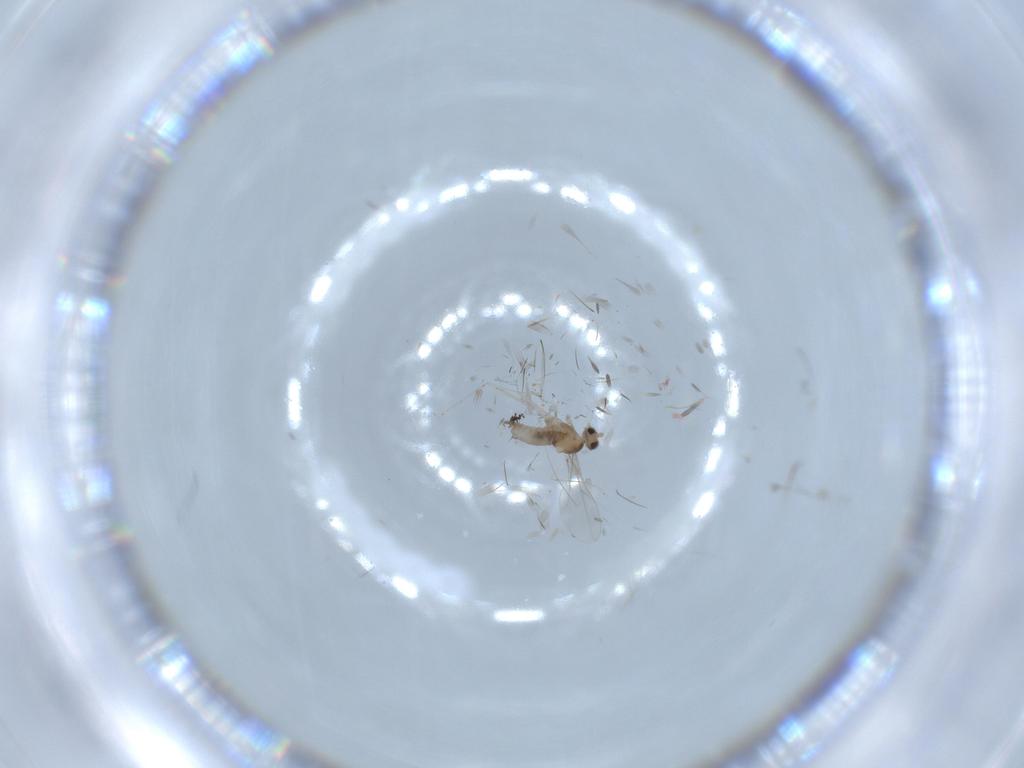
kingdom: Animalia
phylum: Arthropoda
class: Insecta
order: Diptera
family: Cecidomyiidae
